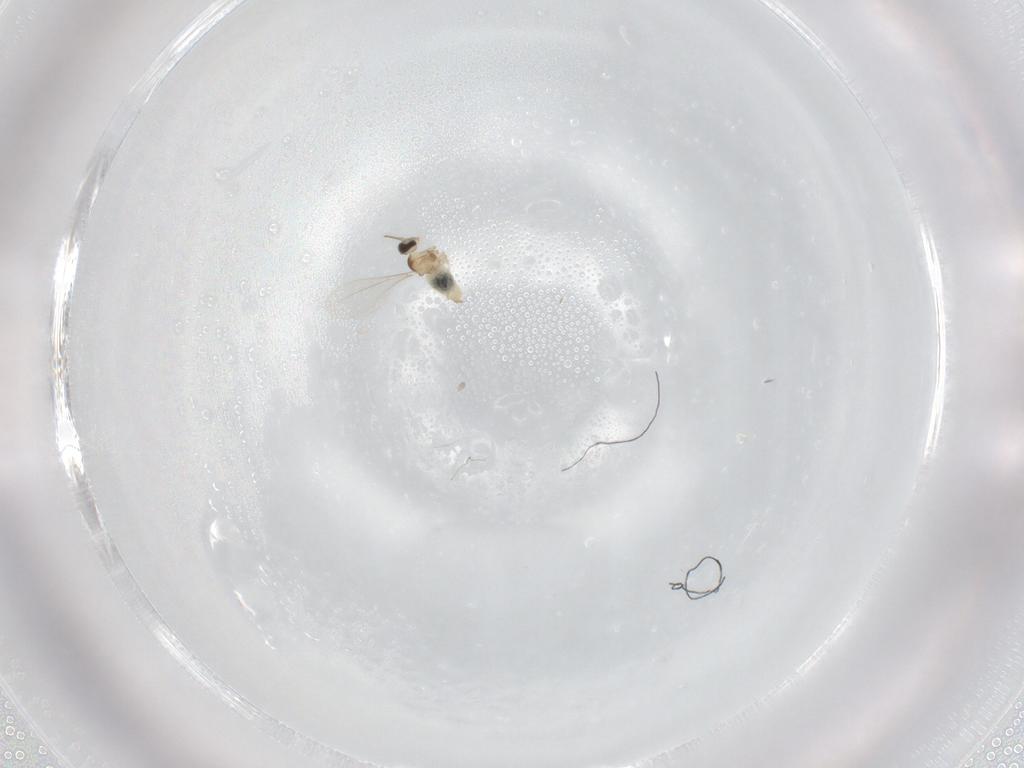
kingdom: Animalia
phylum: Arthropoda
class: Insecta
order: Diptera
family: Cecidomyiidae
